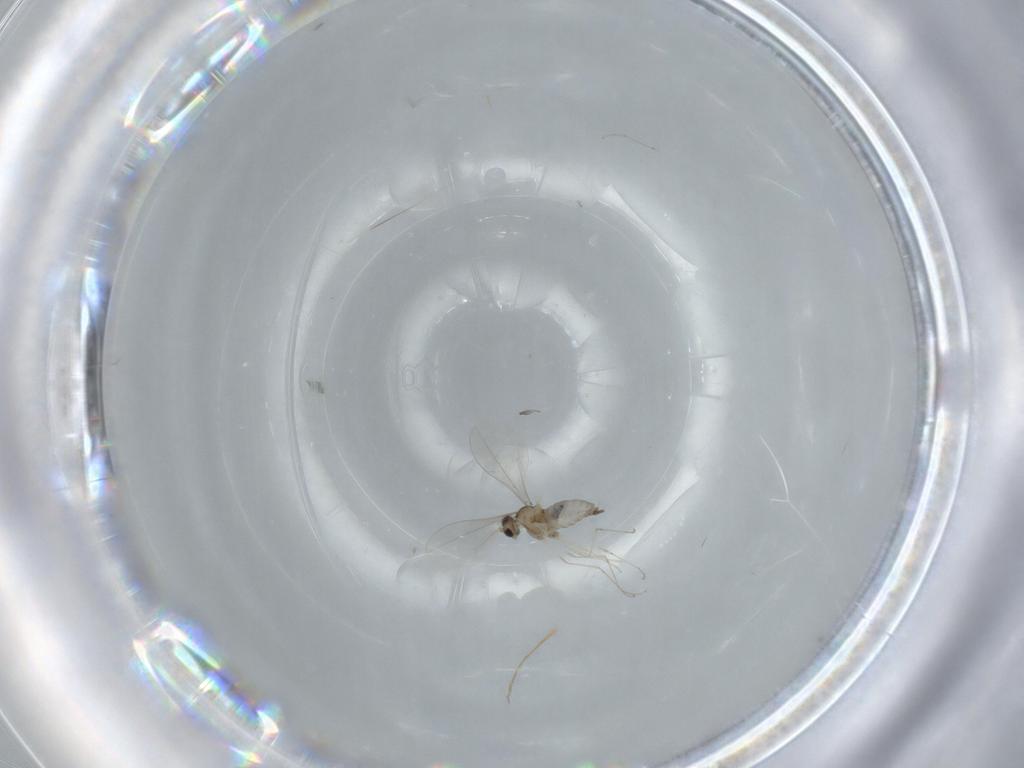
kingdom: Animalia
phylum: Arthropoda
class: Insecta
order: Diptera
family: Cecidomyiidae
